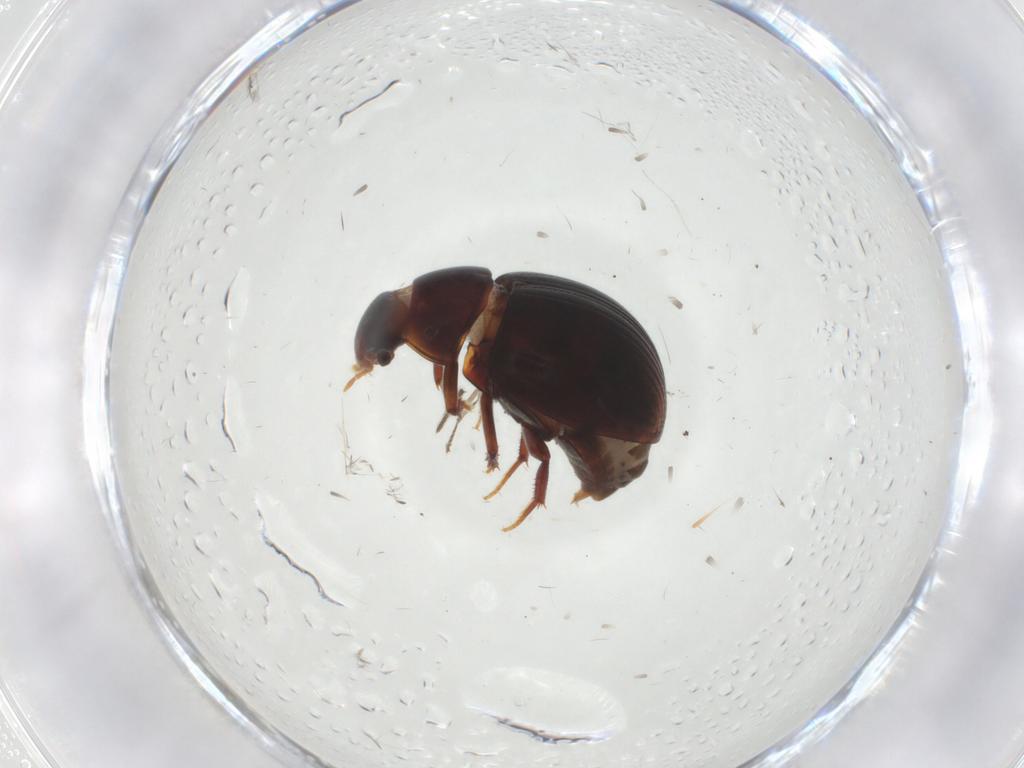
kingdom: Animalia
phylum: Arthropoda
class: Insecta
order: Coleoptera
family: Hydrophilidae
